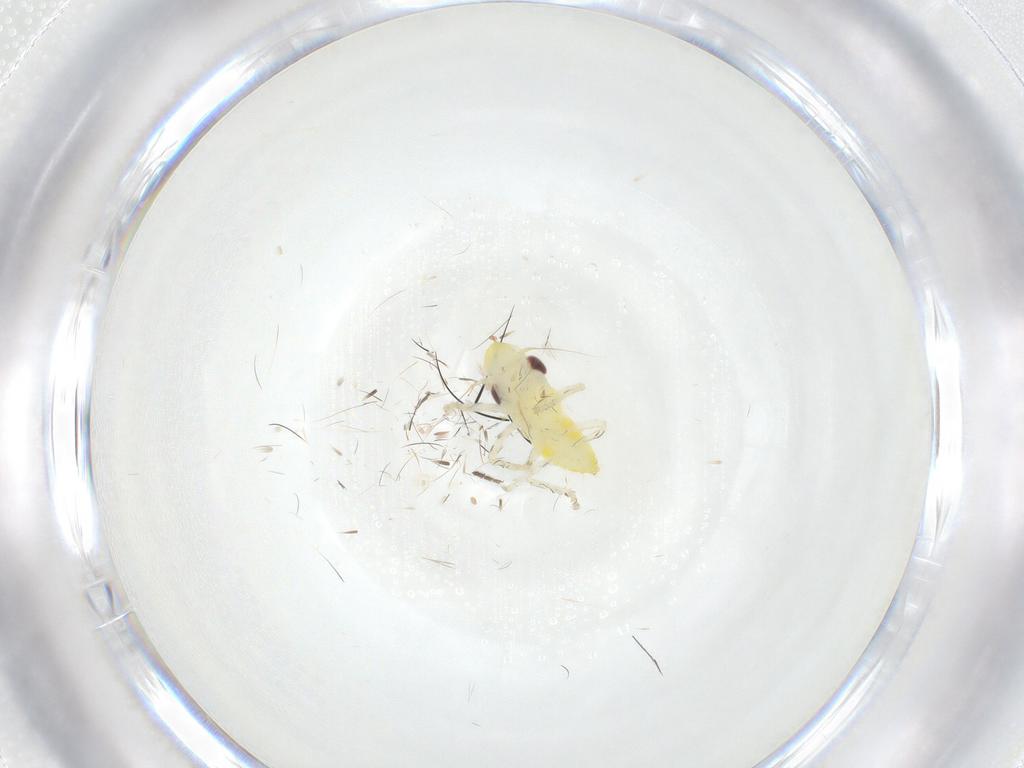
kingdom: Animalia
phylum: Arthropoda
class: Insecta
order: Hemiptera
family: Cicadellidae
